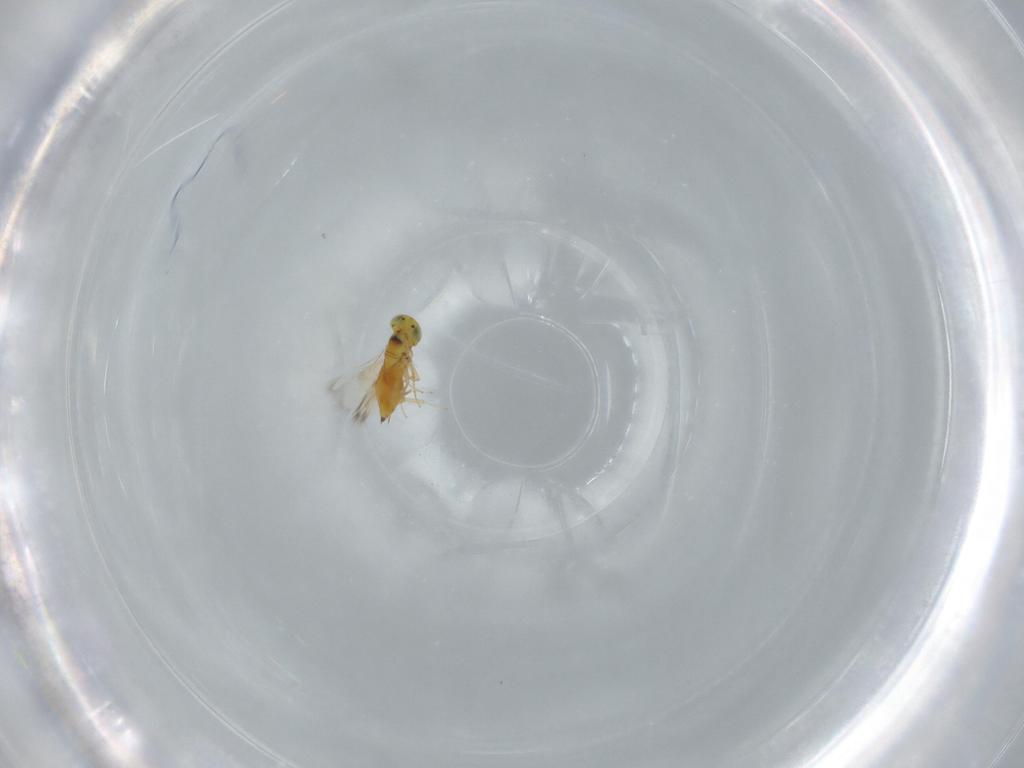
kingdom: Animalia
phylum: Arthropoda
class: Insecta
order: Hymenoptera
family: Signiphoridae
